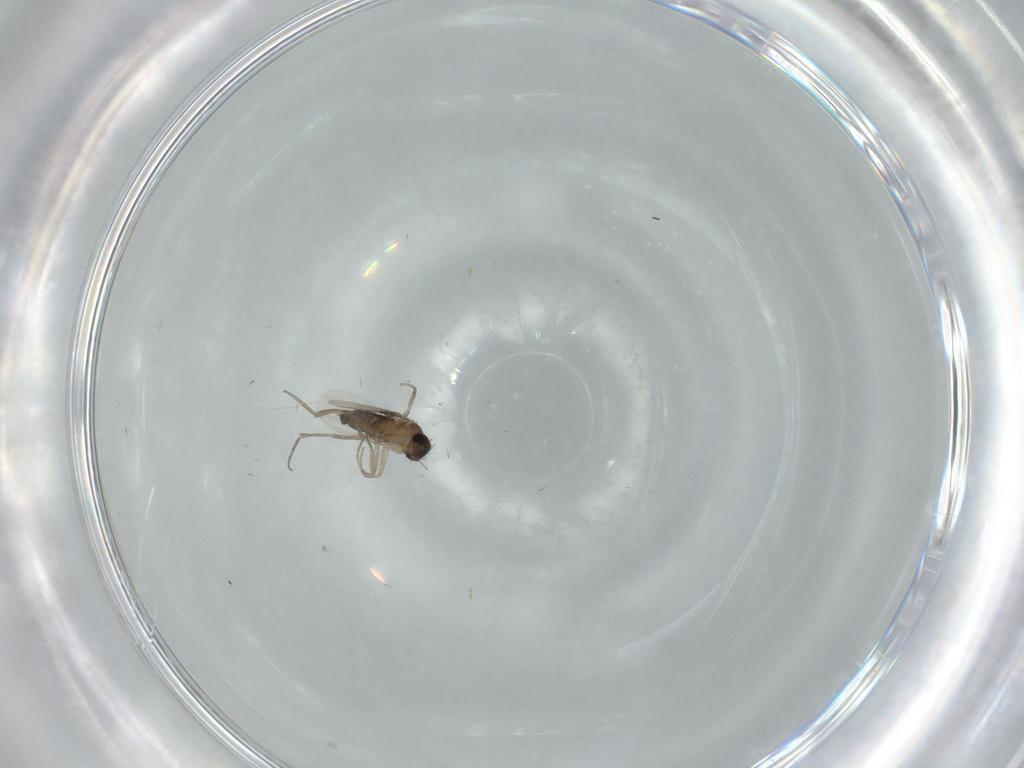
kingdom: Animalia
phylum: Arthropoda
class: Insecta
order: Diptera
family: Phoridae
